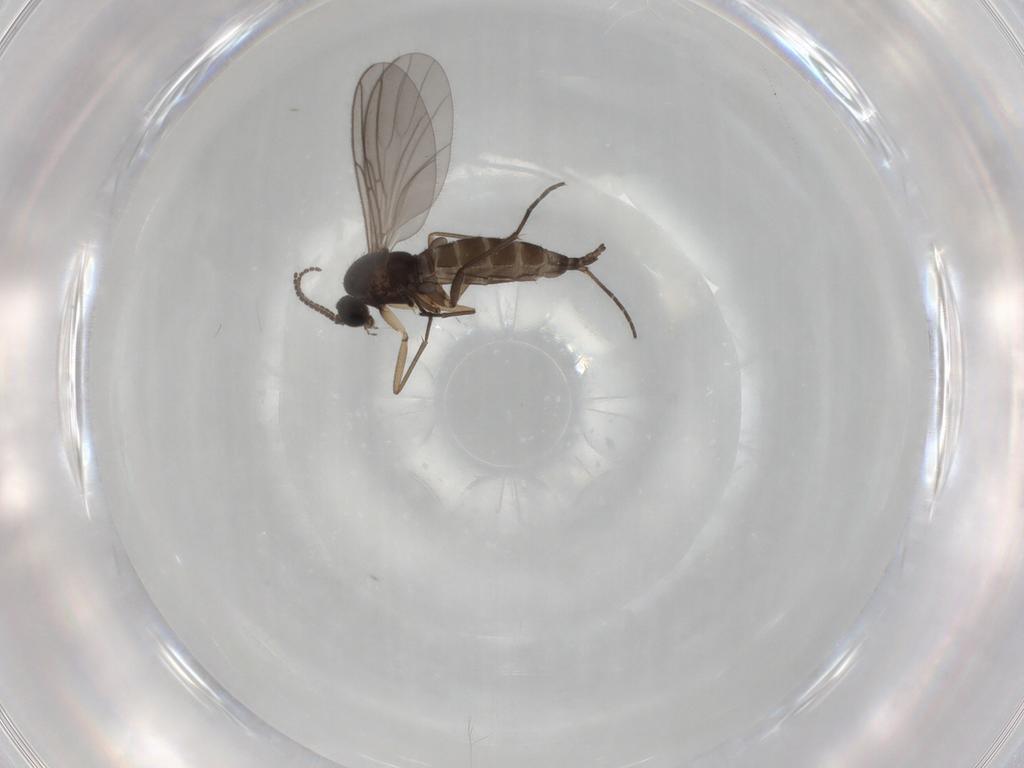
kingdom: Animalia
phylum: Arthropoda
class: Insecta
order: Diptera
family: Sciaridae
